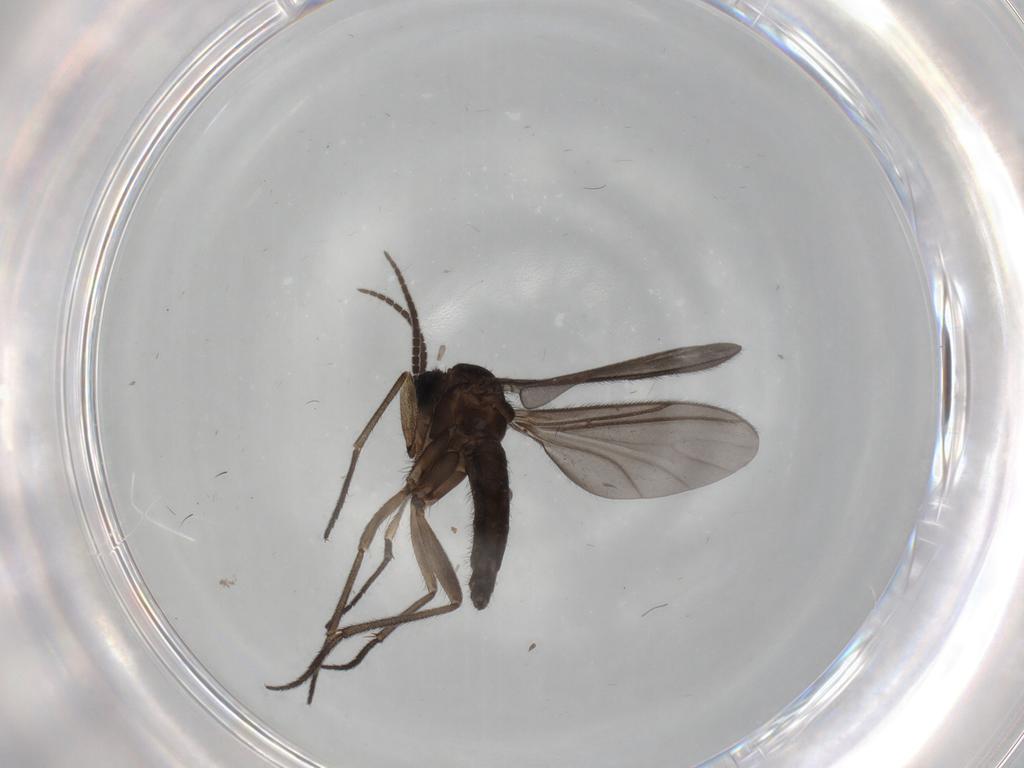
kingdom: Animalia
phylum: Arthropoda
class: Insecta
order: Diptera
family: Sciaridae
